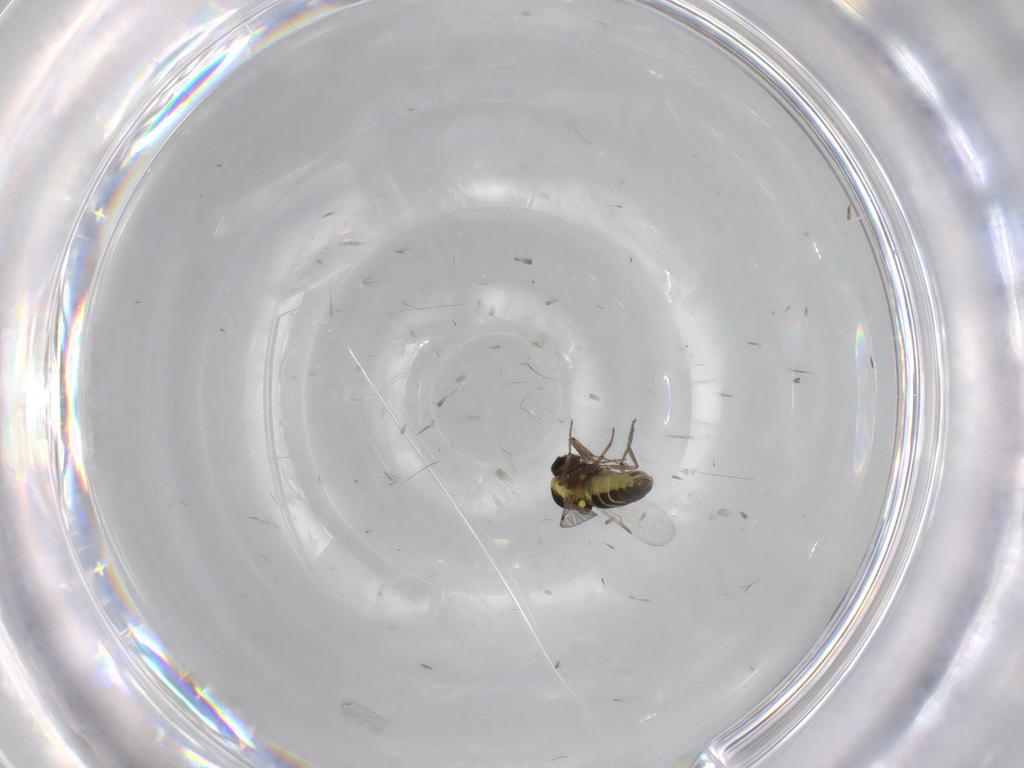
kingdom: Animalia
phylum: Arthropoda
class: Insecta
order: Diptera
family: Ceratopogonidae
